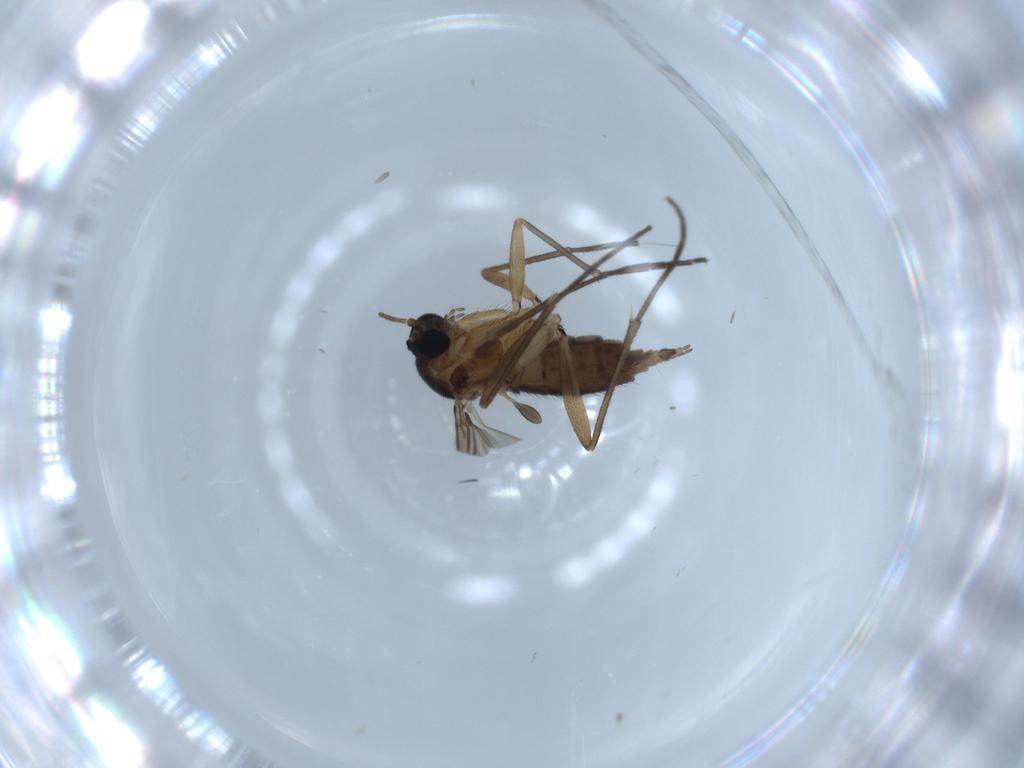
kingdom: Animalia
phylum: Arthropoda
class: Insecta
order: Diptera
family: Sciaridae
